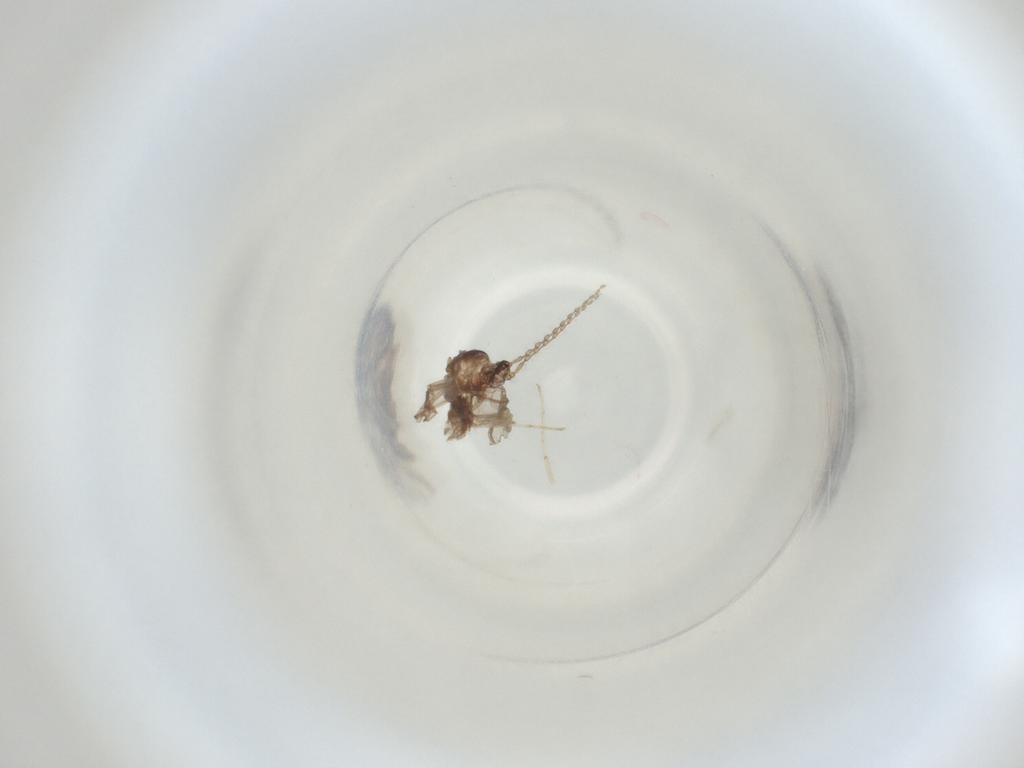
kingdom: Animalia
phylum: Arthropoda
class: Insecta
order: Diptera
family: Cecidomyiidae
